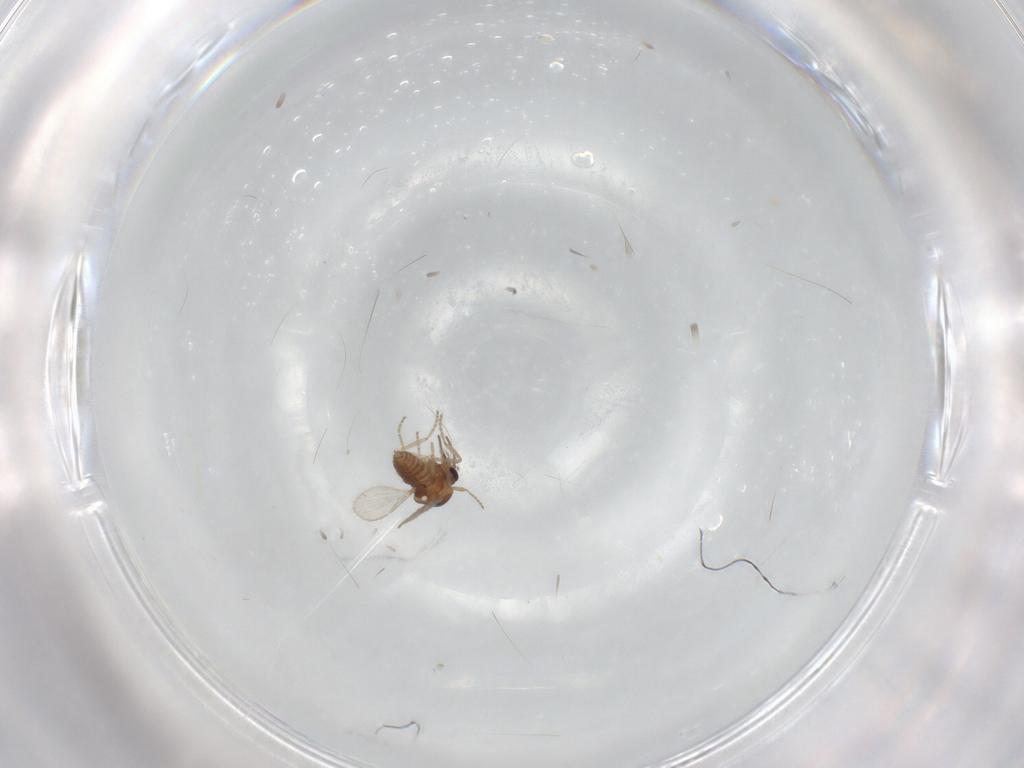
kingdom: Animalia
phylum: Arthropoda
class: Insecta
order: Diptera
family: Ceratopogonidae
